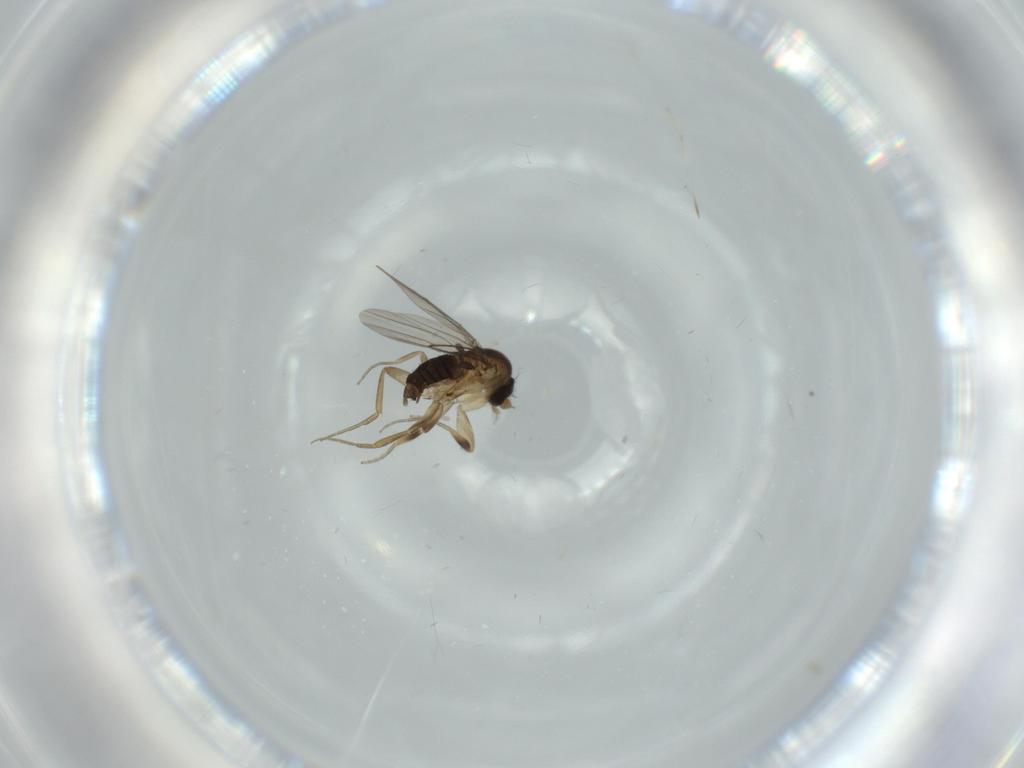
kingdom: Animalia
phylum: Arthropoda
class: Insecta
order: Diptera
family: Phoridae
